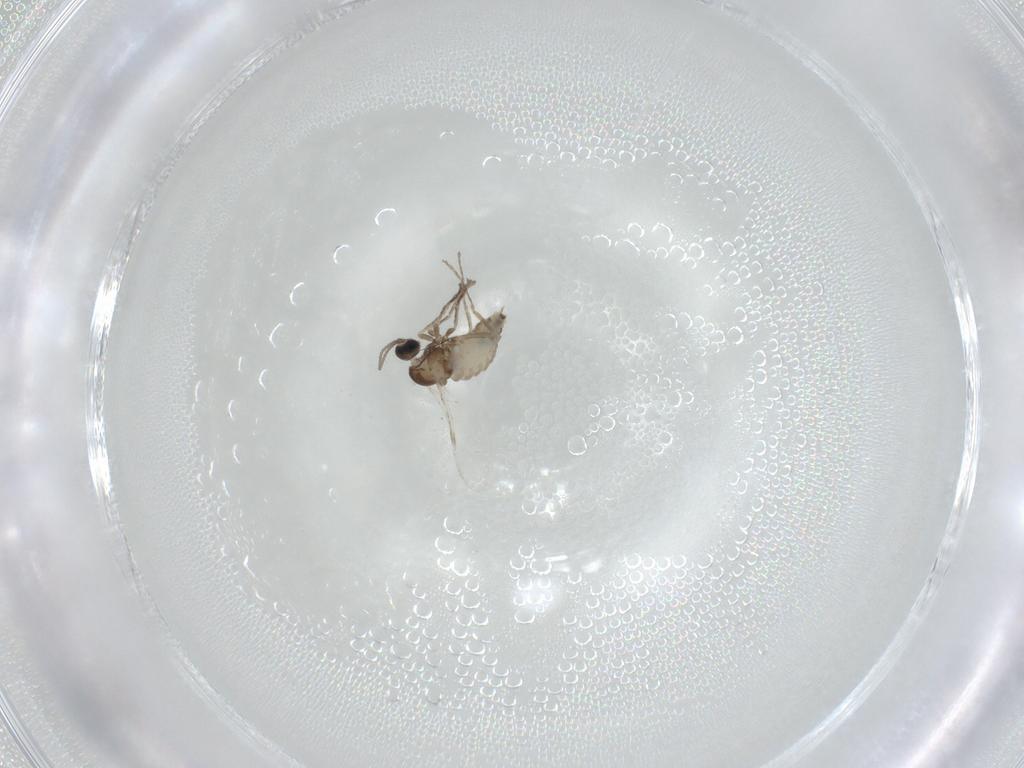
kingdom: Animalia
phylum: Arthropoda
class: Insecta
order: Diptera
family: Cecidomyiidae
